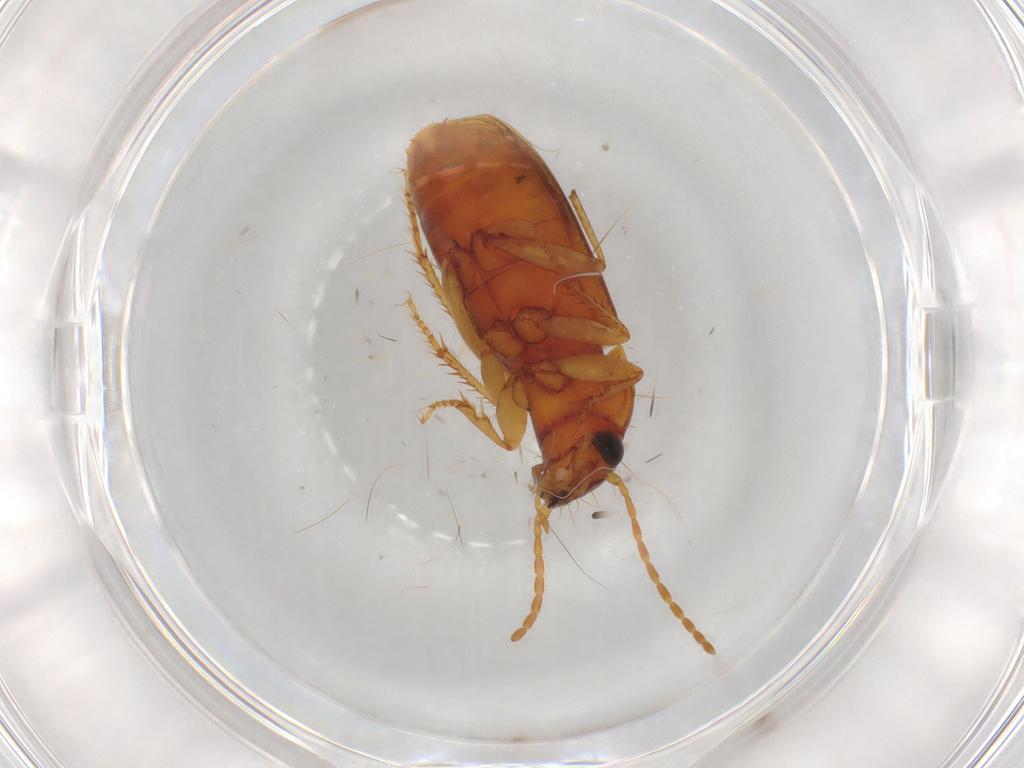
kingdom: Animalia
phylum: Arthropoda
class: Insecta
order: Coleoptera
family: Carabidae
